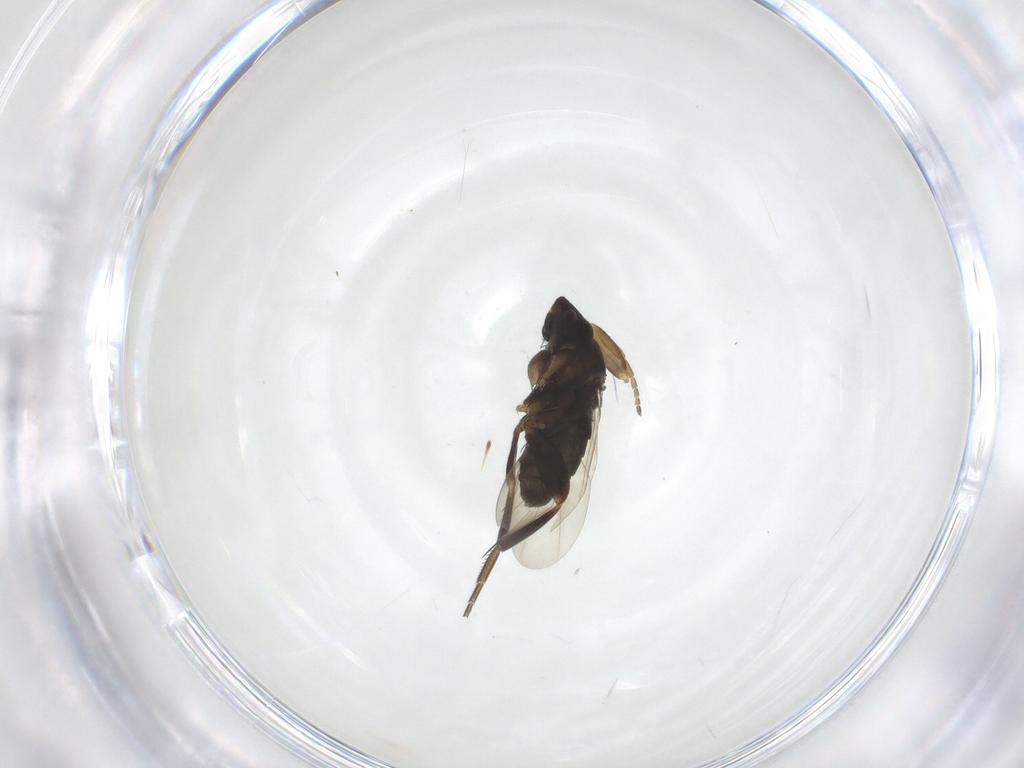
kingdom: Animalia
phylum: Arthropoda
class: Insecta
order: Diptera
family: Phoridae
